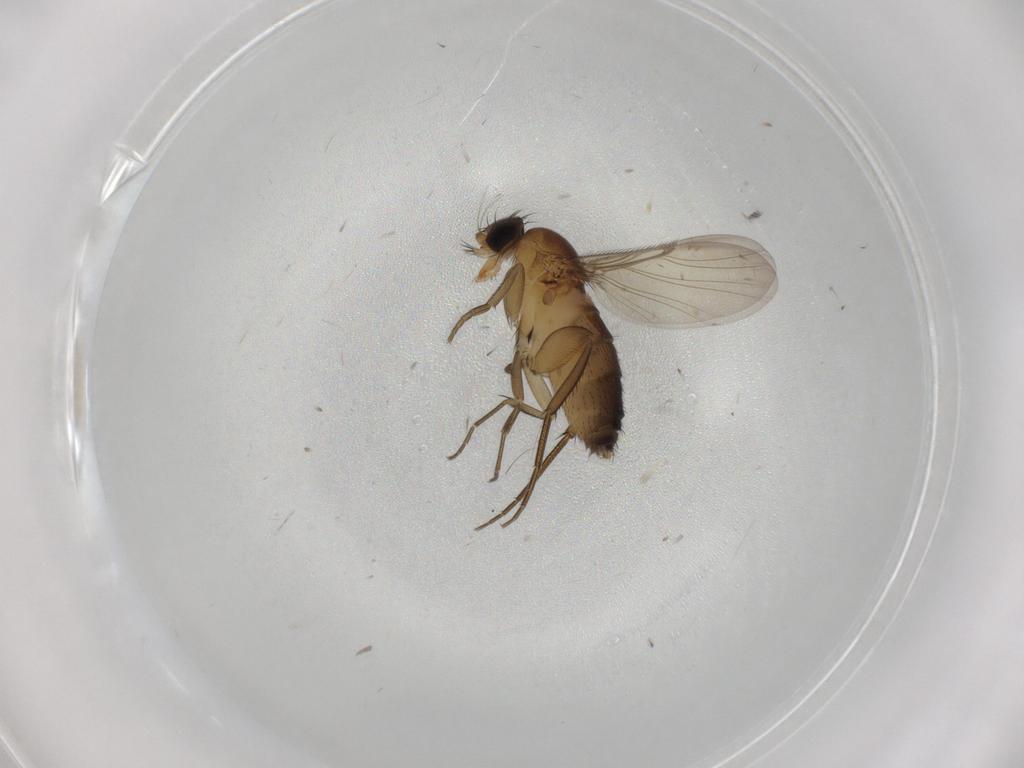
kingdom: Animalia
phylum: Arthropoda
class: Insecta
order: Diptera
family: Phoridae
